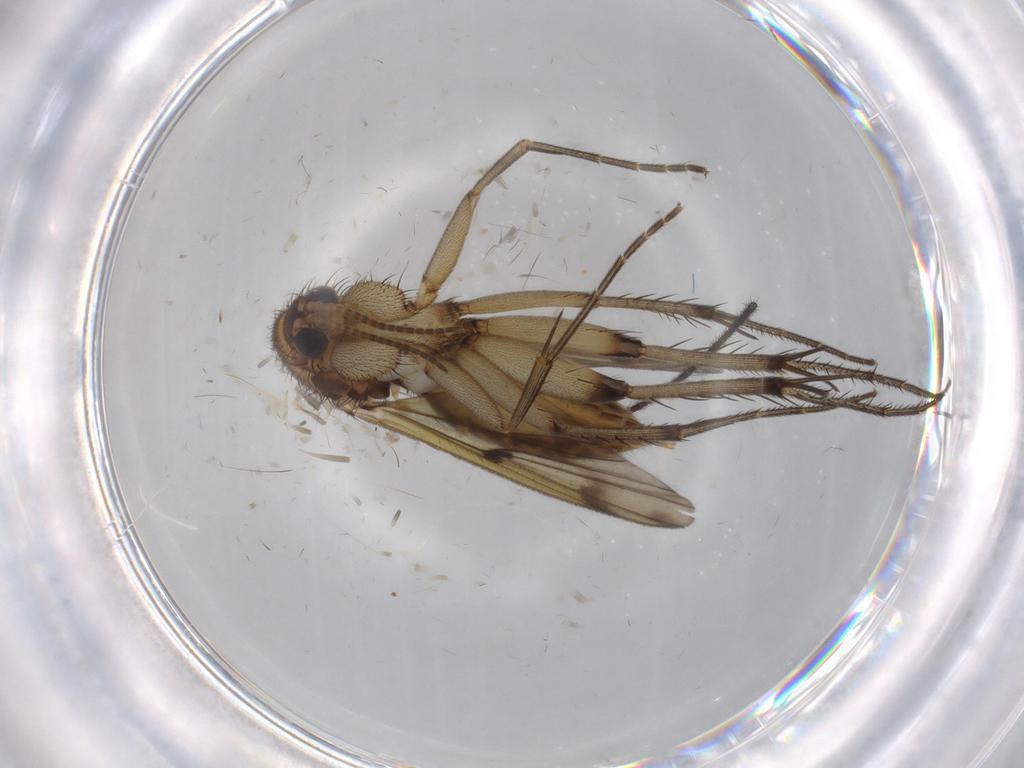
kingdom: Animalia
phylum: Arthropoda
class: Insecta
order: Diptera
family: Mycetophilidae
